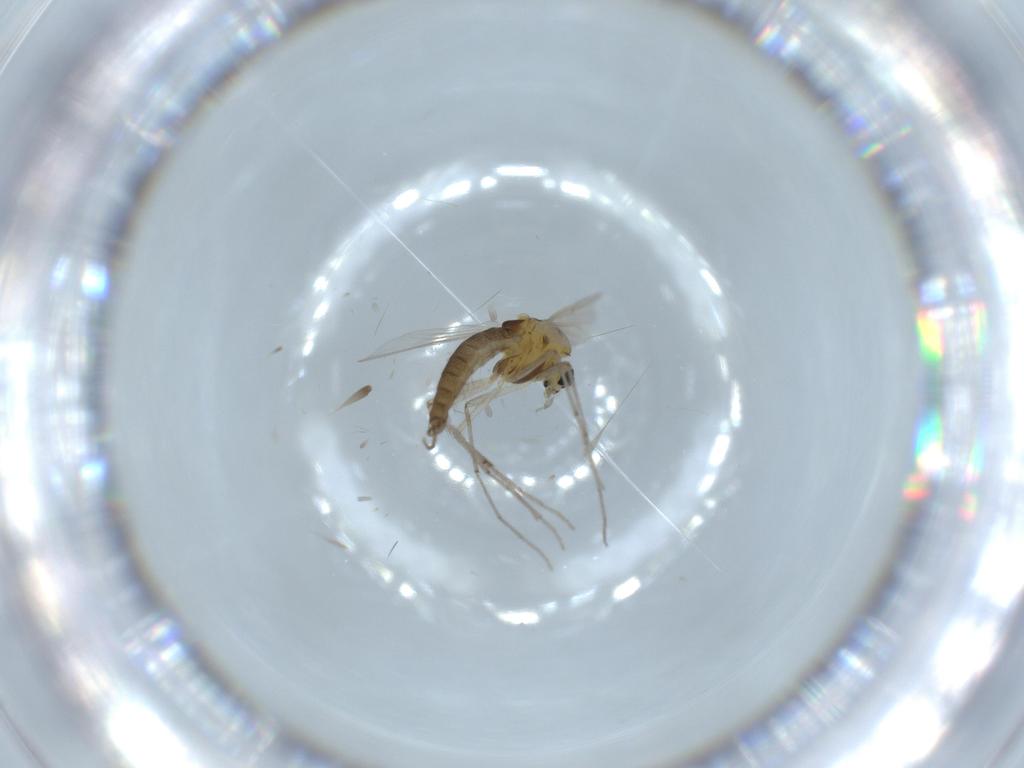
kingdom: Animalia
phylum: Arthropoda
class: Insecta
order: Diptera
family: Chironomidae
